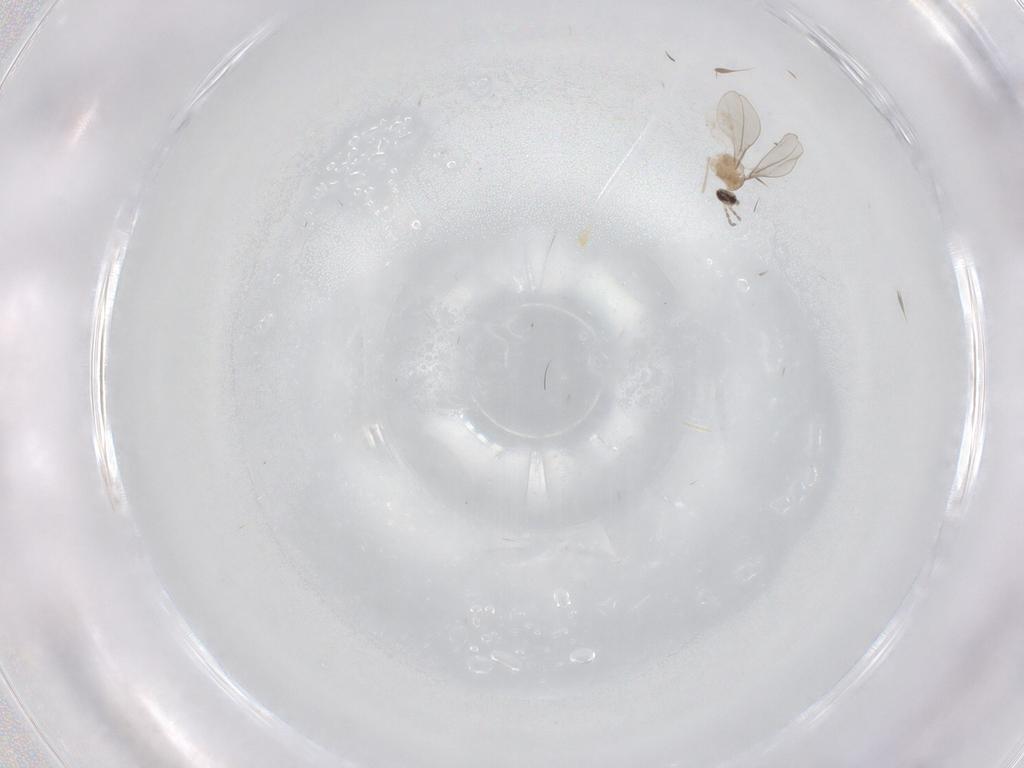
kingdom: Animalia
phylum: Arthropoda
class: Insecta
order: Diptera
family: Cecidomyiidae
